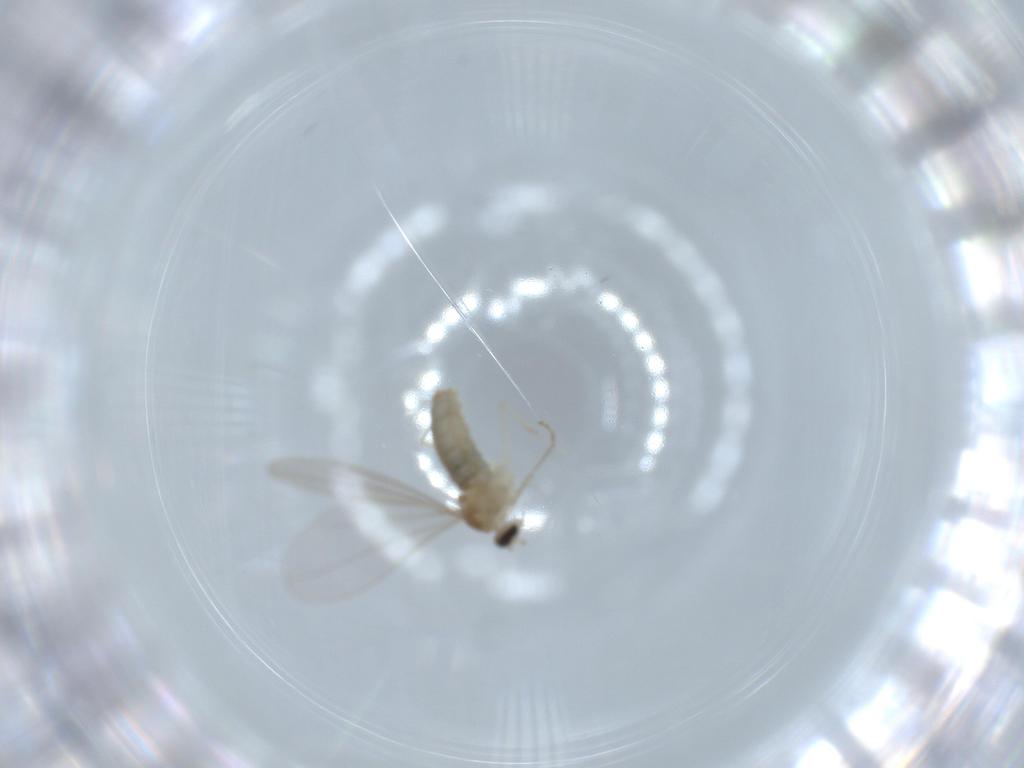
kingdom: Animalia
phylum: Arthropoda
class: Insecta
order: Diptera
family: Cecidomyiidae
